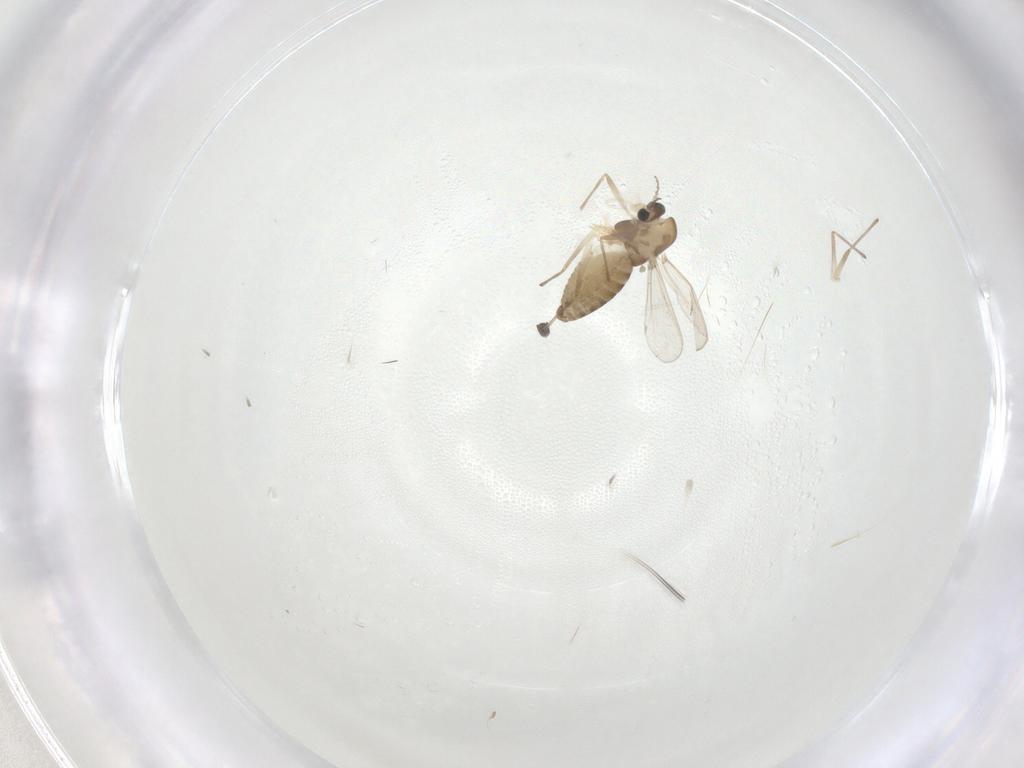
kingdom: Animalia
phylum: Arthropoda
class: Insecta
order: Diptera
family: Chironomidae
